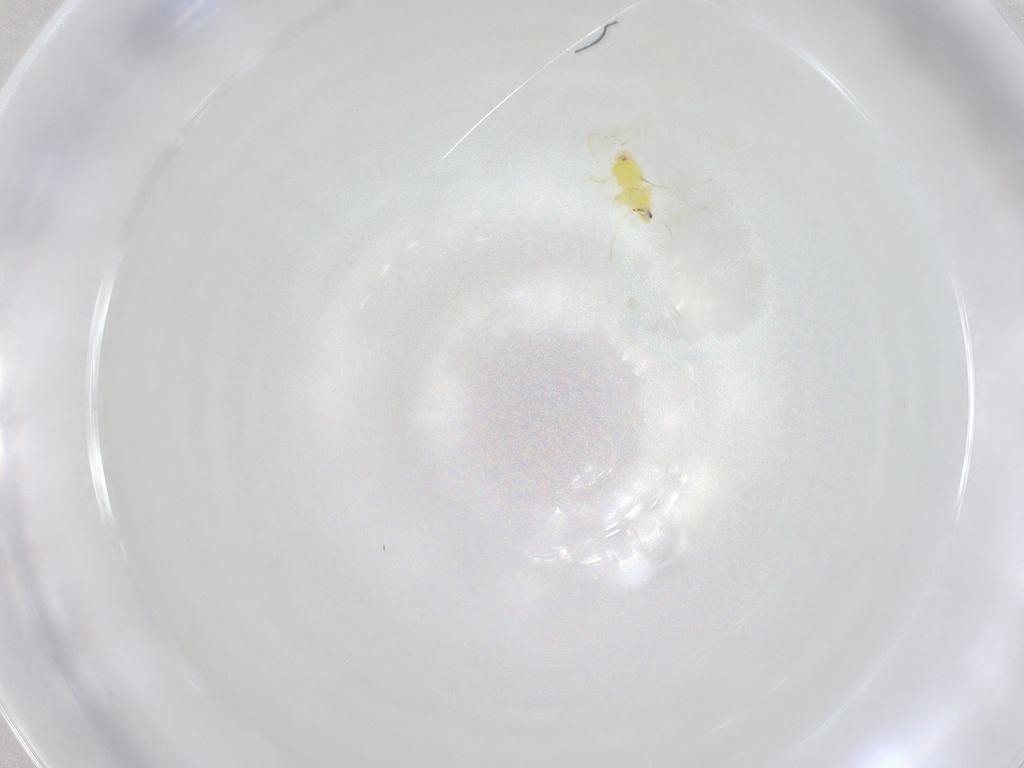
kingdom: Animalia
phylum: Arthropoda
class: Insecta
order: Hemiptera
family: Aleyrodidae
